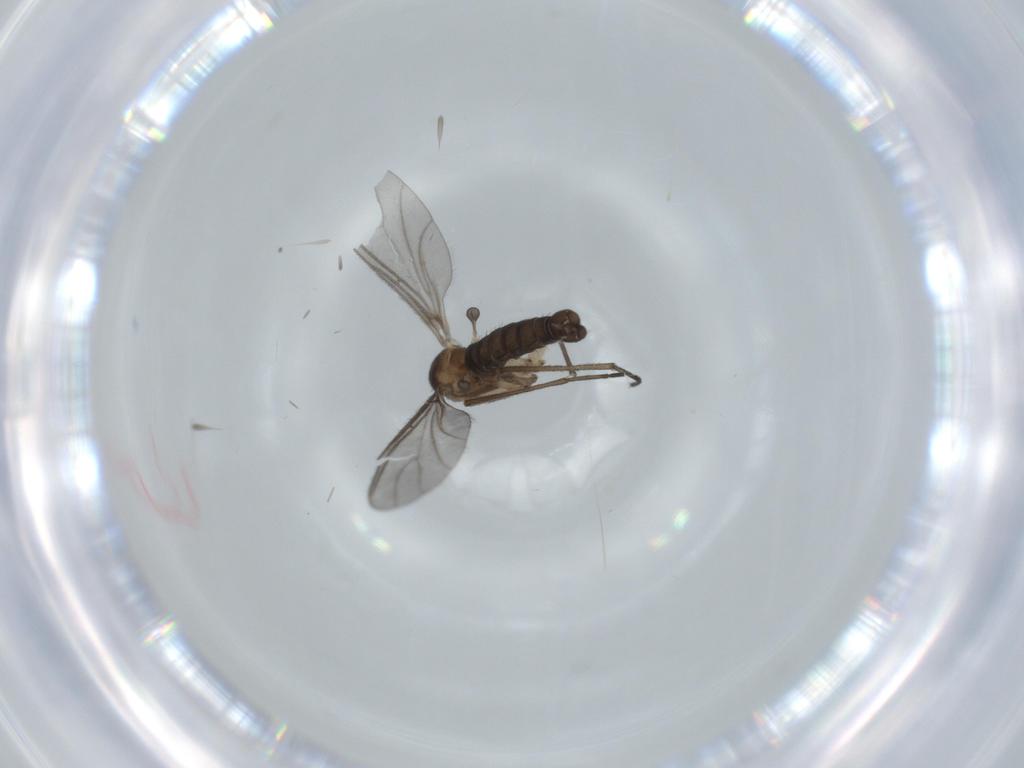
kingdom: Animalia
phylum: Arthropoda
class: Insecta
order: Diptera
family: Sciaridae
